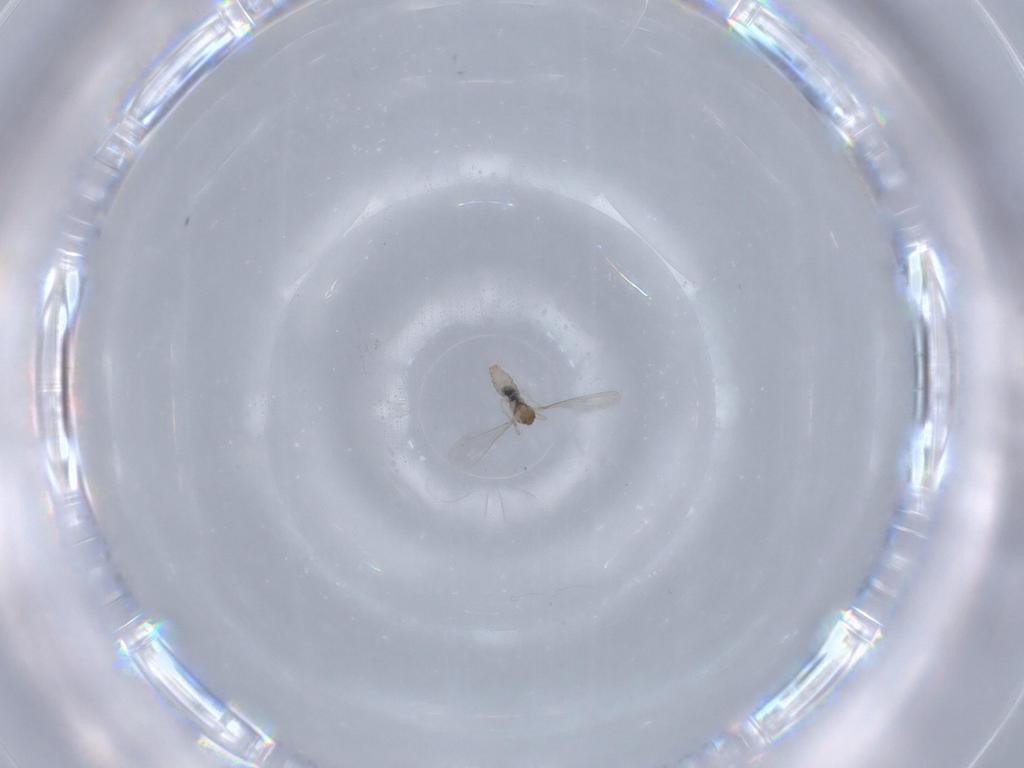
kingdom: Animalia
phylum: Arthropoda
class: Insecta
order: Diptera
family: Cecidomyiidae
